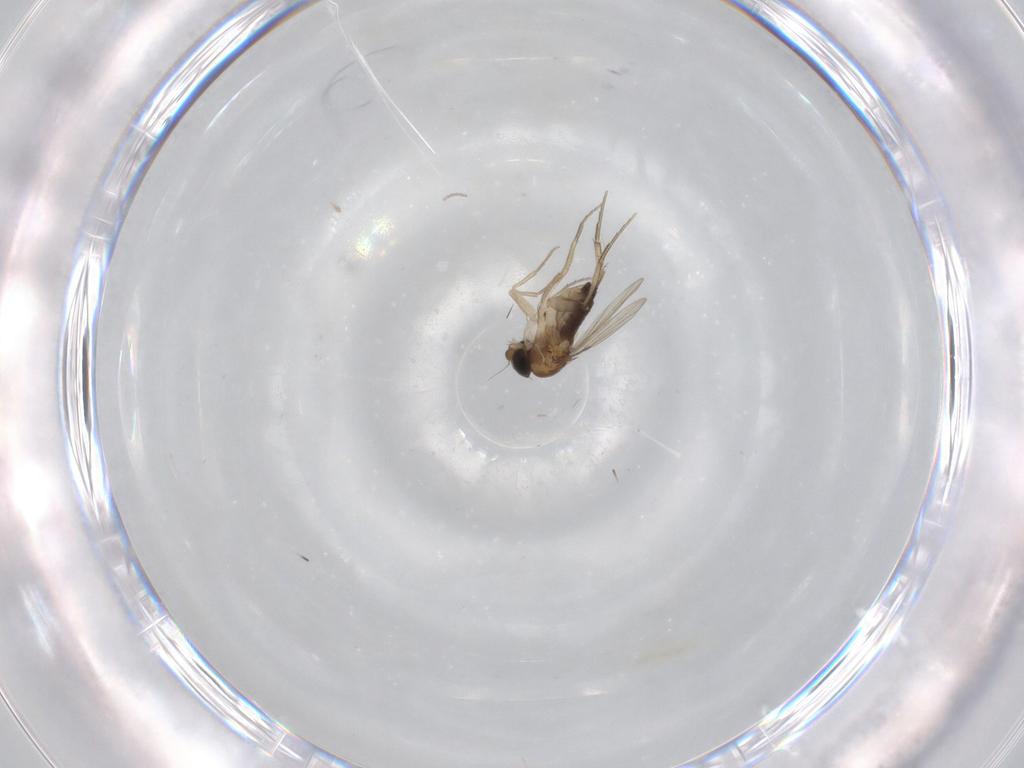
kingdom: Animalia
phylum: Arthropoda
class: Insecta
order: Diptera
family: Phoridae
